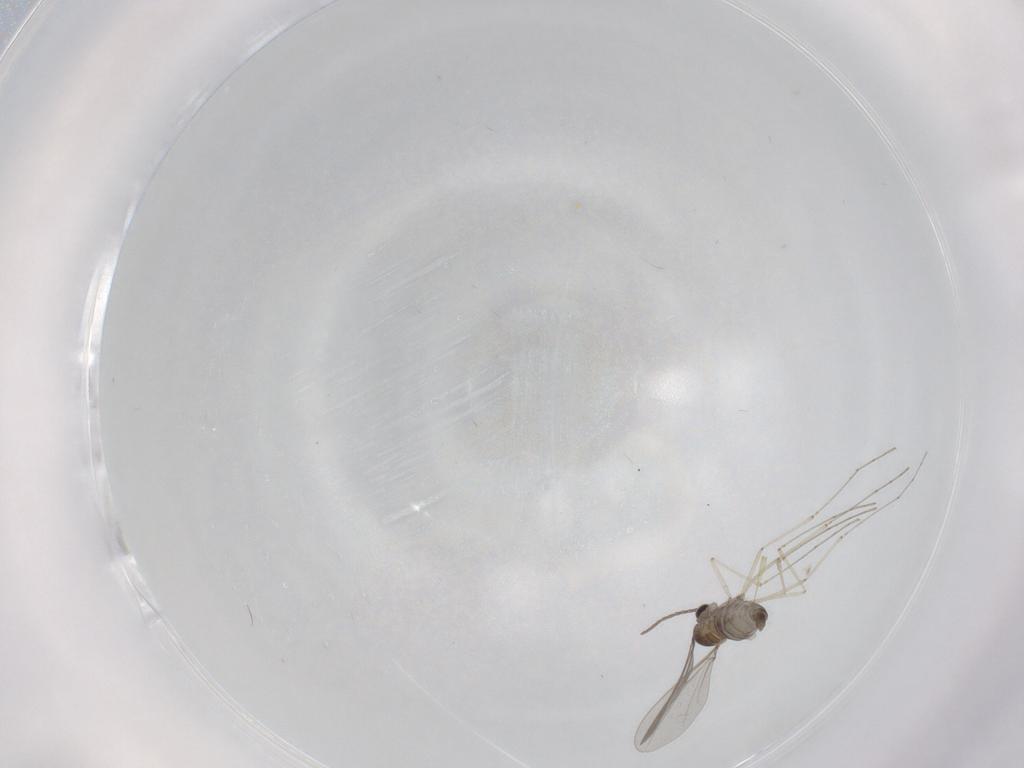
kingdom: Animalia
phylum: Arthropoda
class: Insecta
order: Diptera
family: Cecidomyiidae
